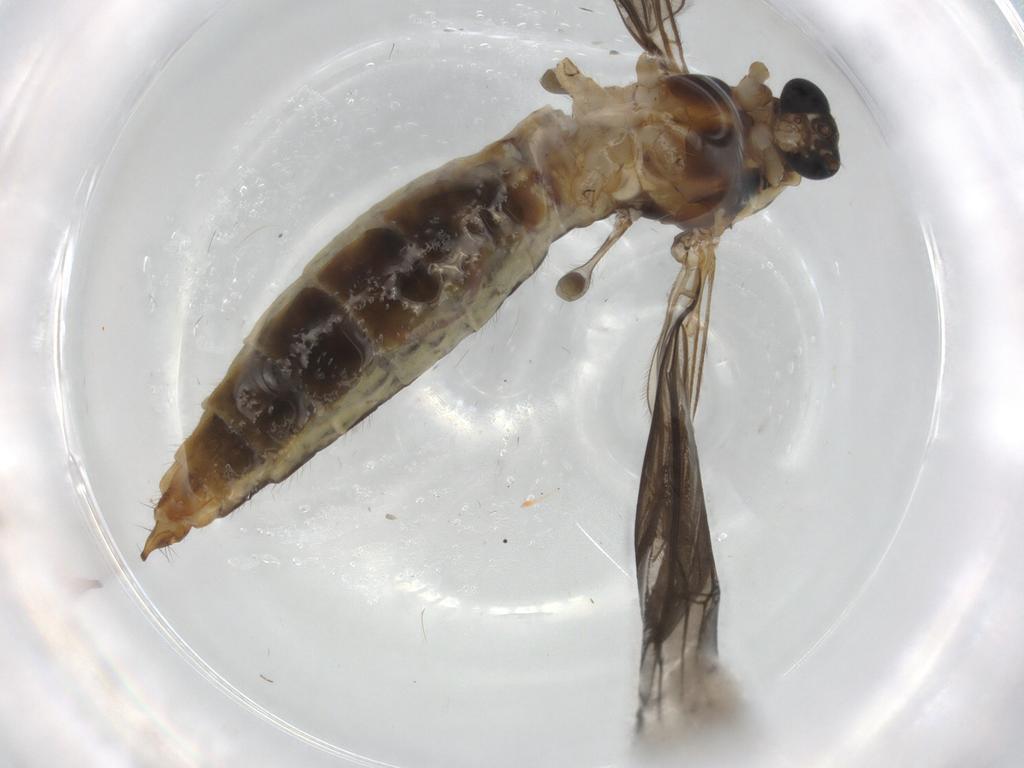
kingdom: Animalia
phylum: Arthropoda
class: Insecta
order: Diptera
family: Limoniidae
